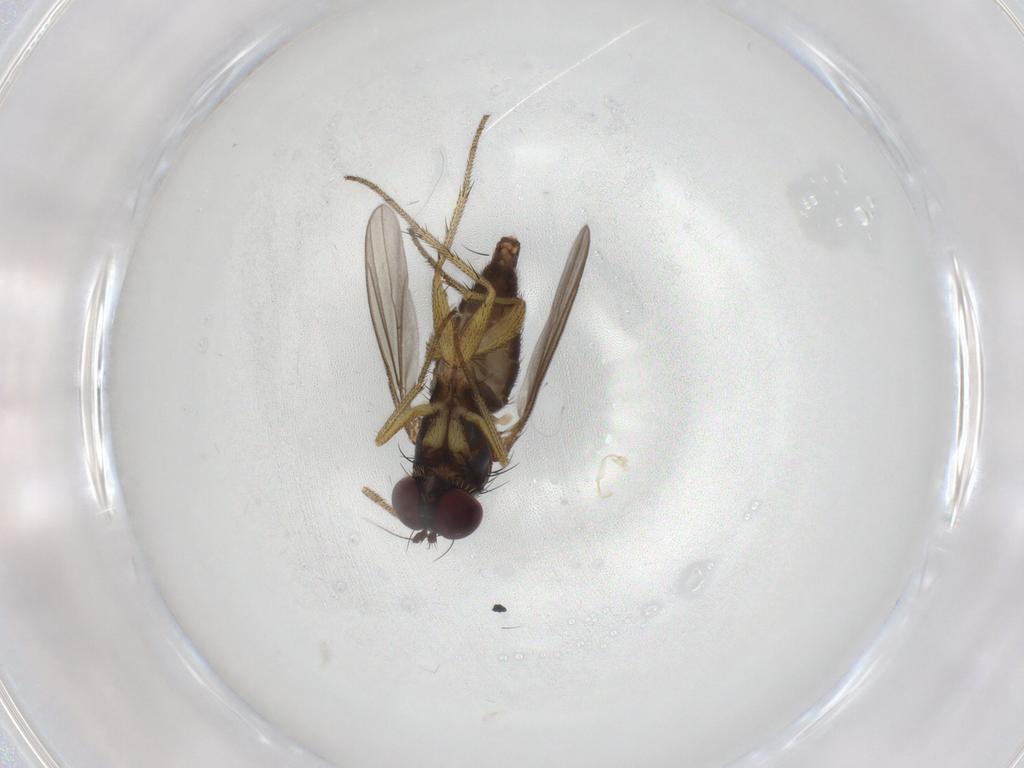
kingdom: Animalia
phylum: Arthropoda
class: Insecta
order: Diptera
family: Dolichopodidae
